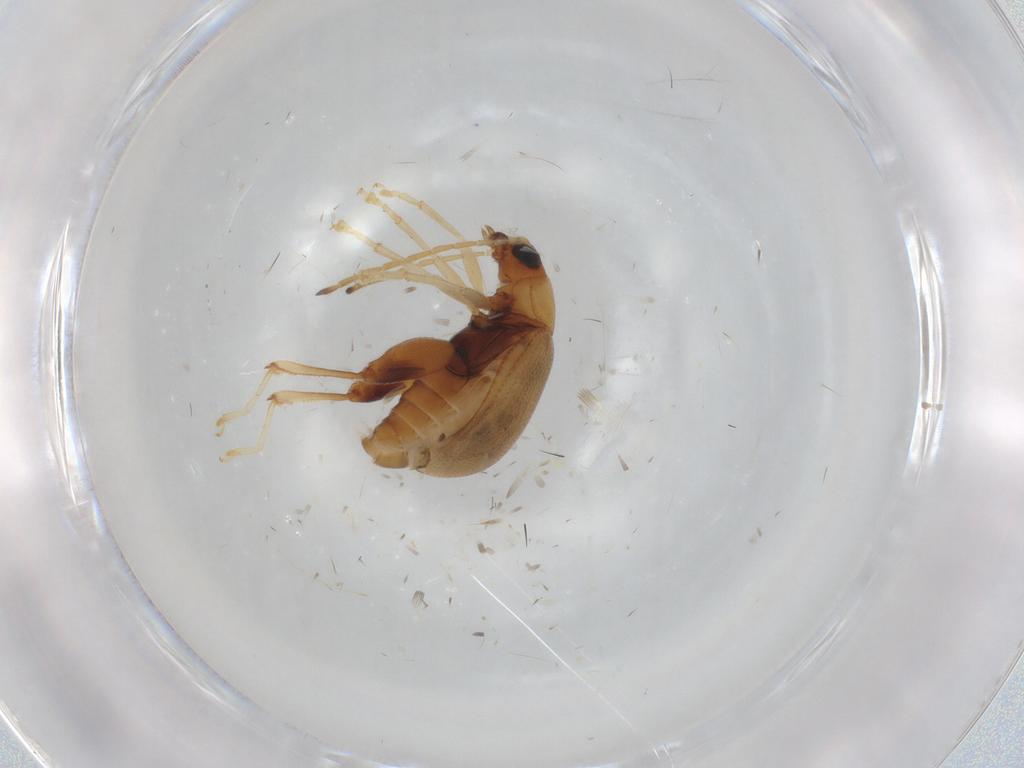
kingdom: Animalia
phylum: Arthropoda
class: Insecta
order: Coleoptera
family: Chrysomelidae
